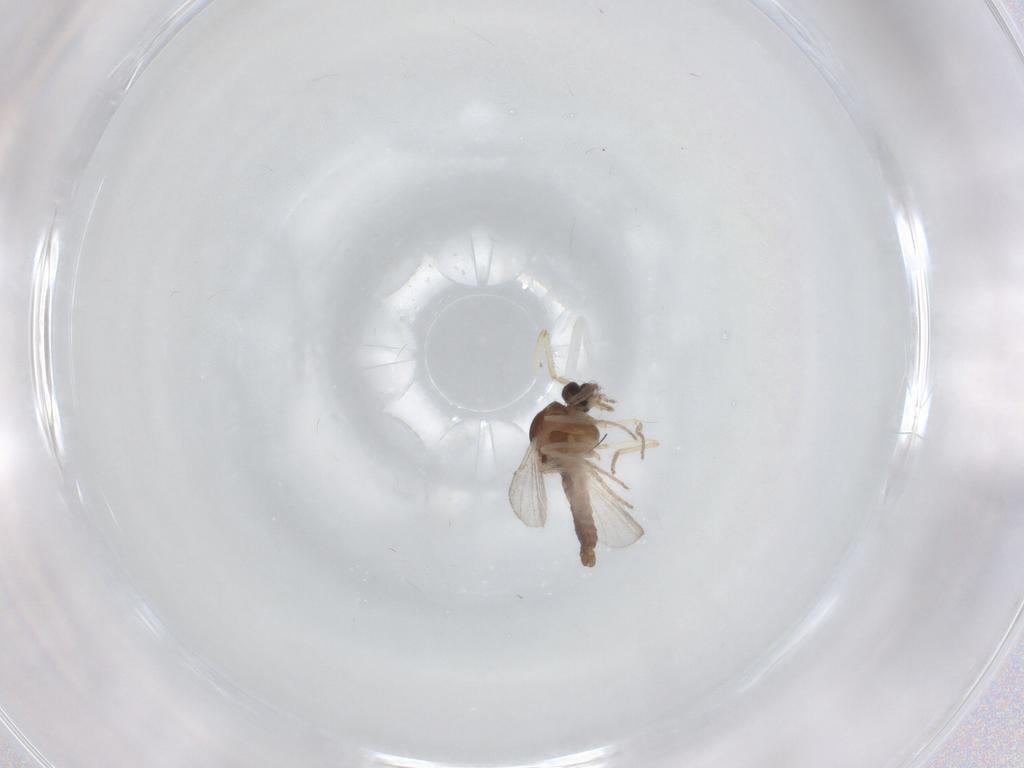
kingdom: Animalia
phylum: Arthropoda
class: Insecta
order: Diptera
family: Ceratopogonidae
